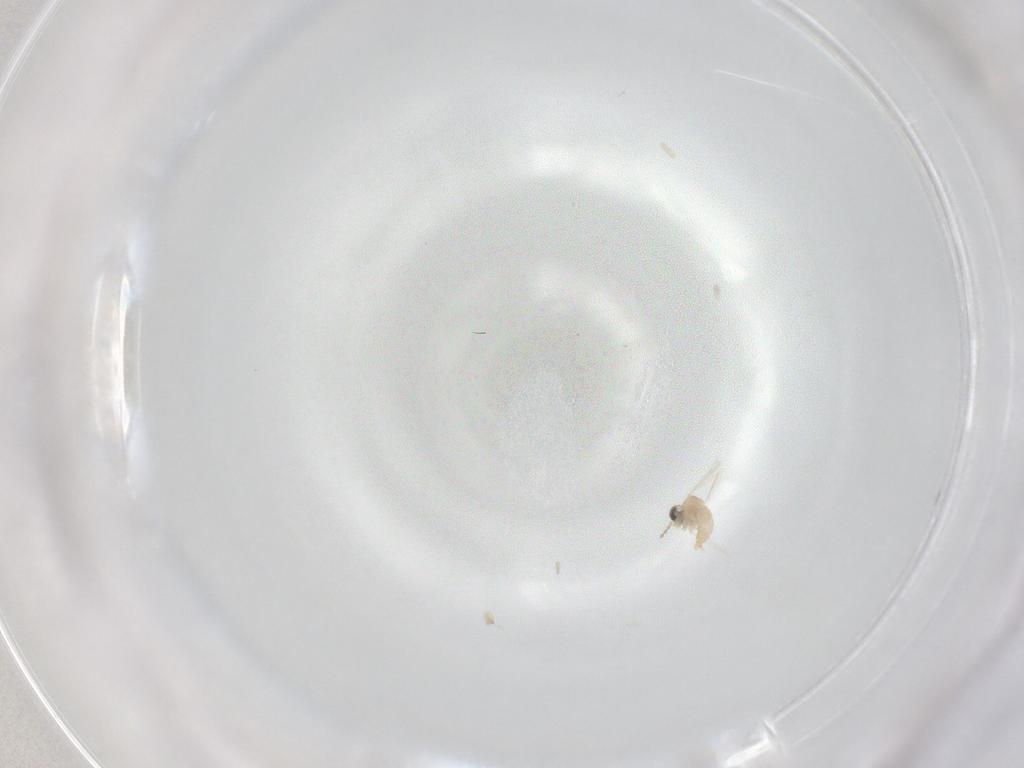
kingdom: Animalia
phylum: Arthropoda
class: Insecta
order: Diptera
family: Cecidomyiidae
